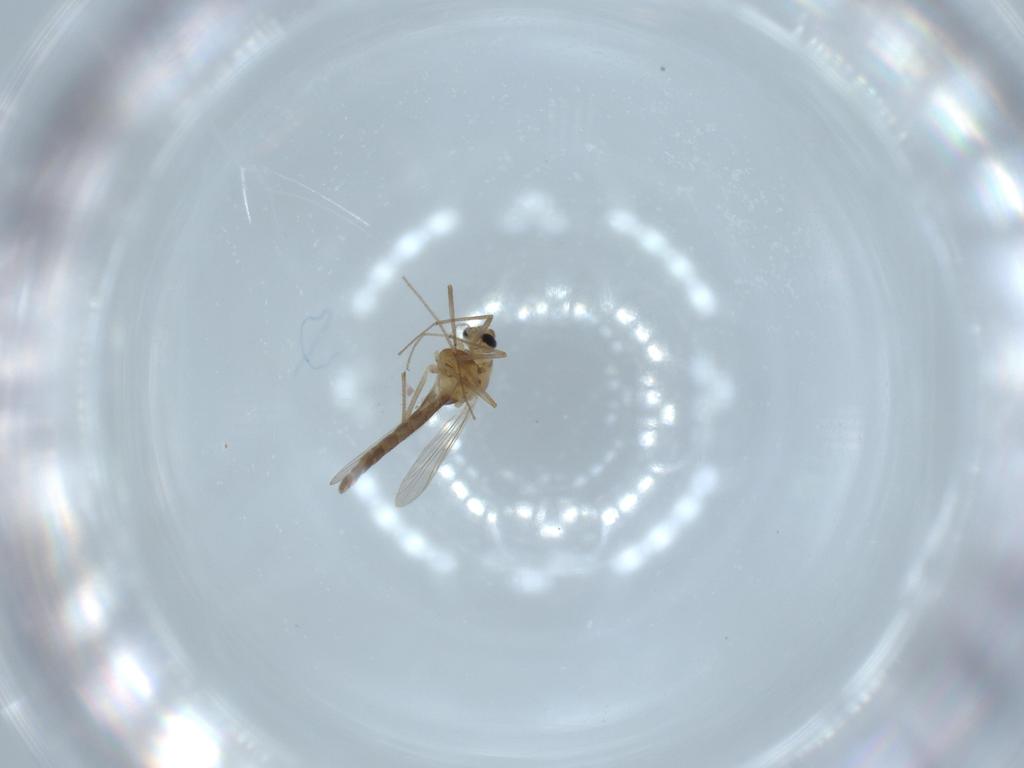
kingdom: Animalia
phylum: Arthropoda
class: Insecta
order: Diptera
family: Chironomidae
